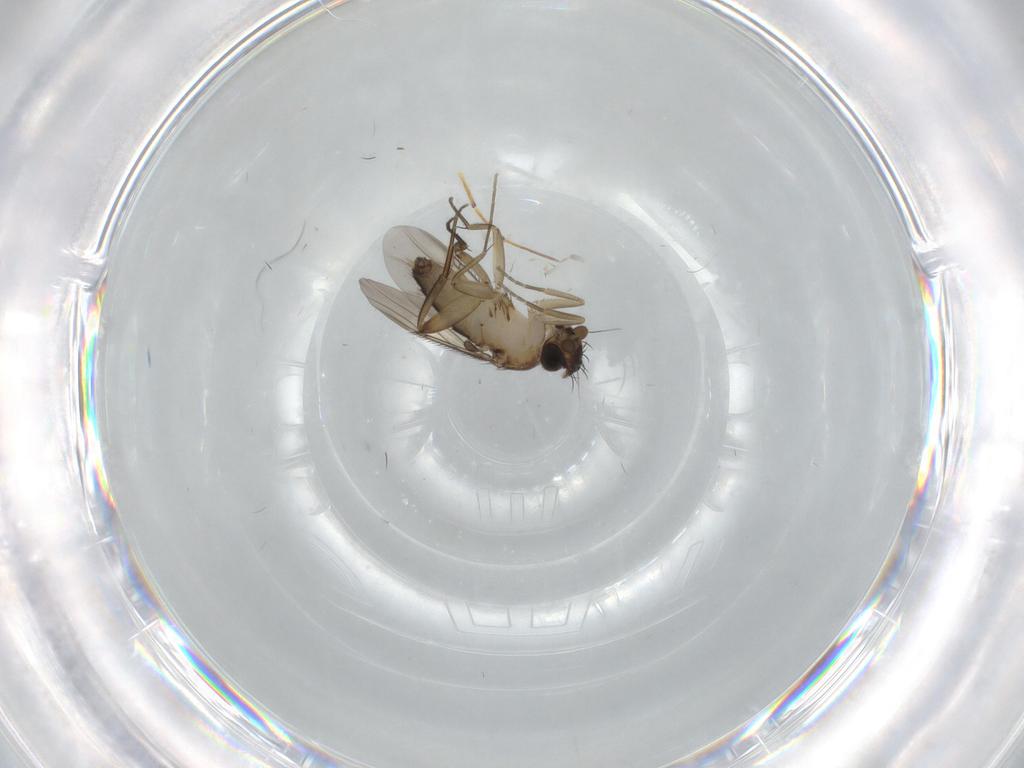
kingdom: Animalia
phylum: Arthropoda
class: Insecta
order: Diptera
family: Phoridae
